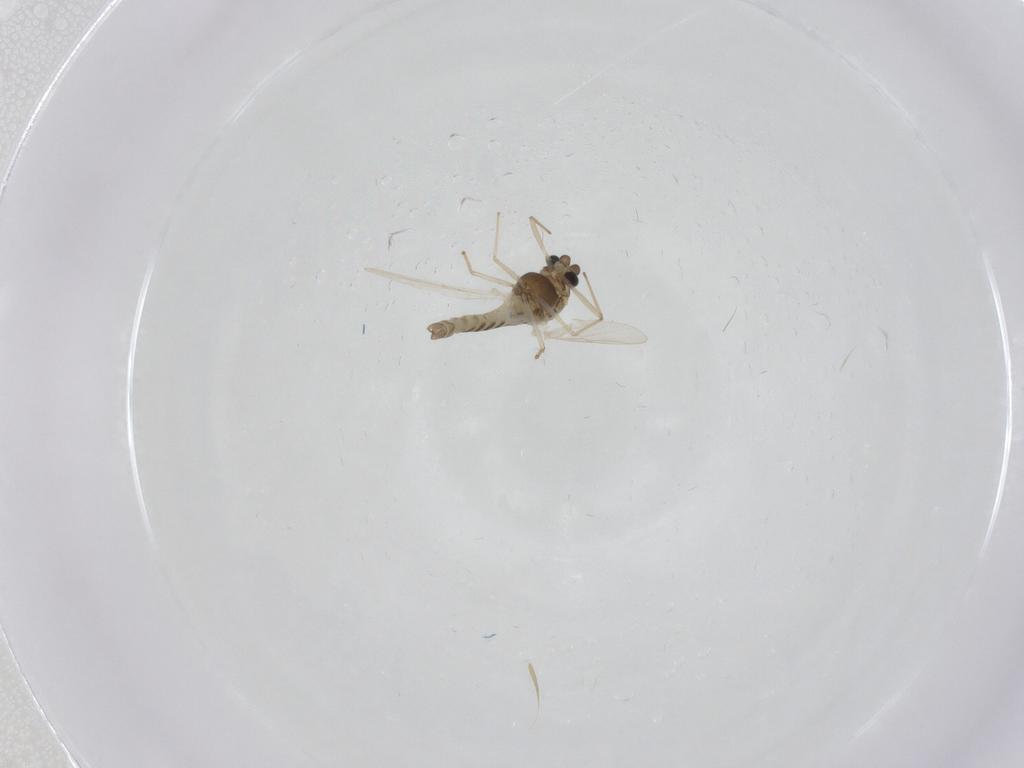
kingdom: Animalia
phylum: Arthropoda
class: Insecta
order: Diptera
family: Chironomidae
